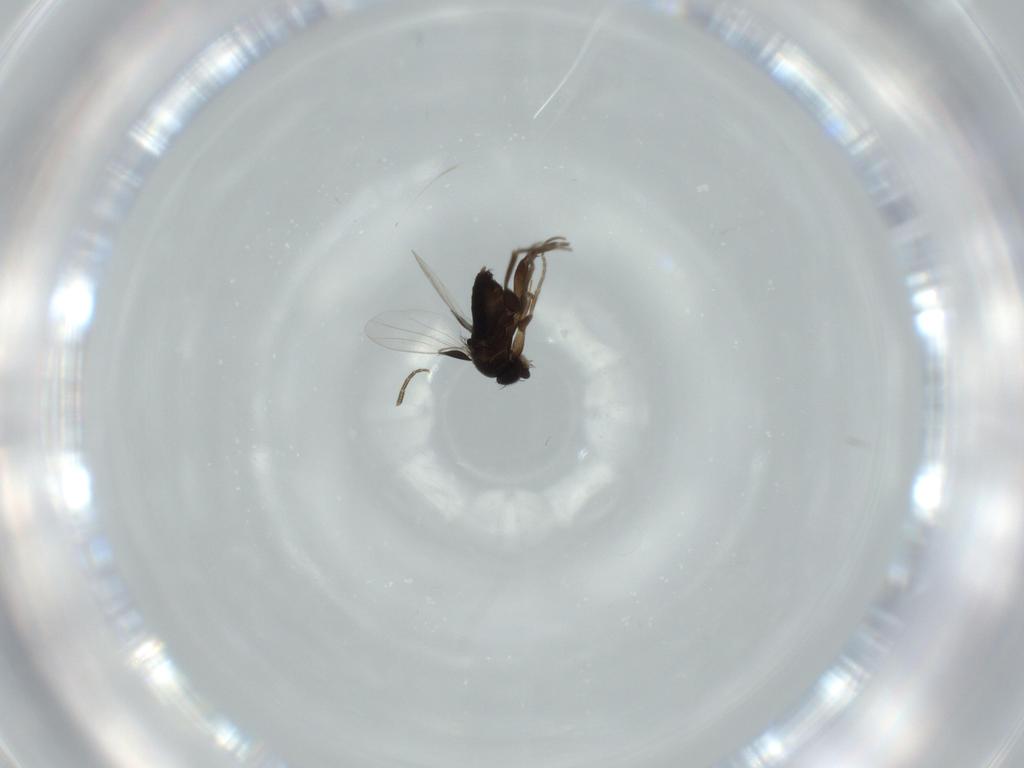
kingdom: Animalia
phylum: Arthropoda
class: Insecta
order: Diptera
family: Phoridae
